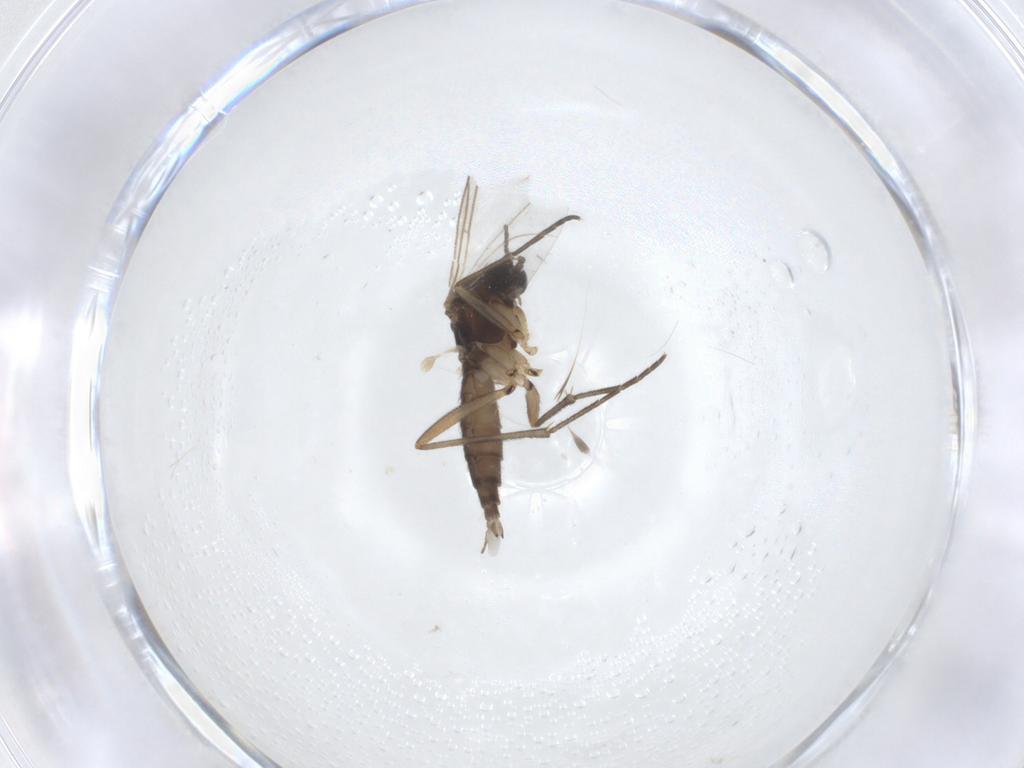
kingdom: Animalia
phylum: Arthropoda
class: Insecta
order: Diptera
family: Sciaridae
